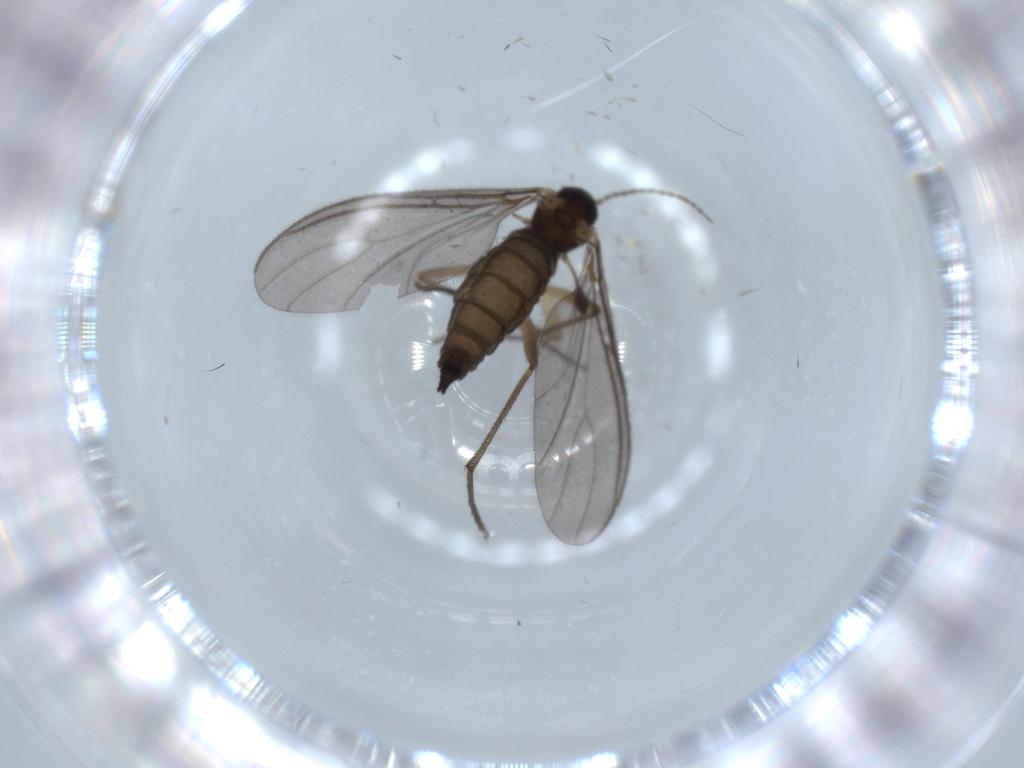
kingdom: Animalia
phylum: Arthropoda
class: Insecta
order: Diptera
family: Sciaridae
